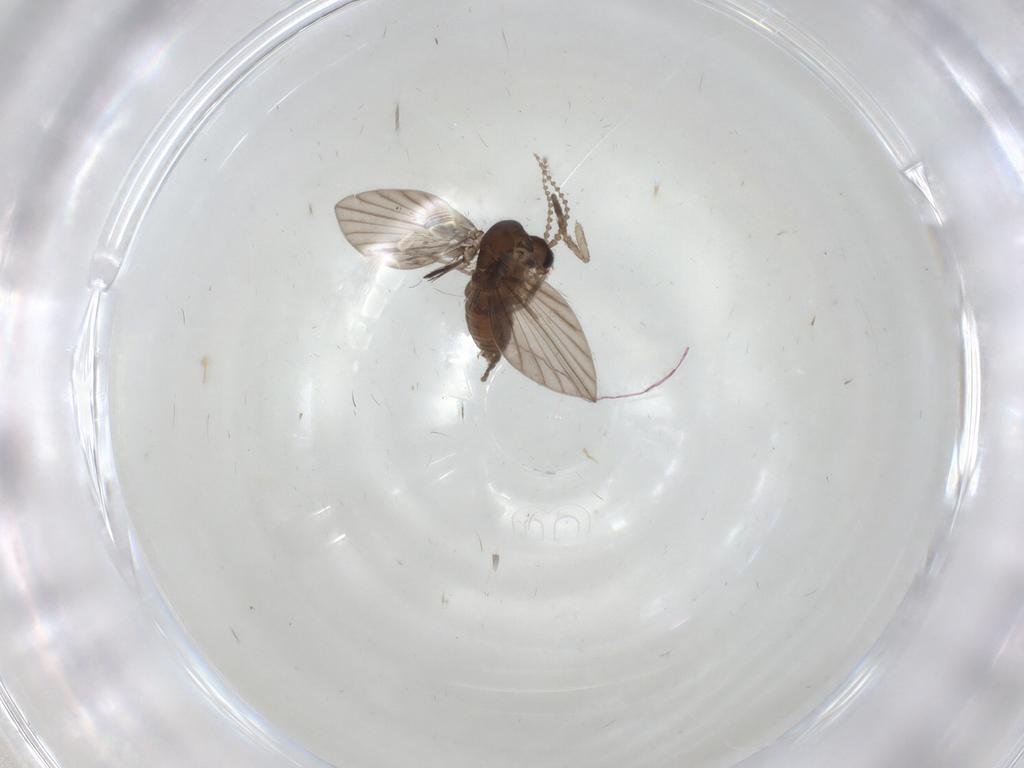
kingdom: Animalia
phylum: Arthropoda
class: Insecta
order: Diptera
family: Psychodidae
